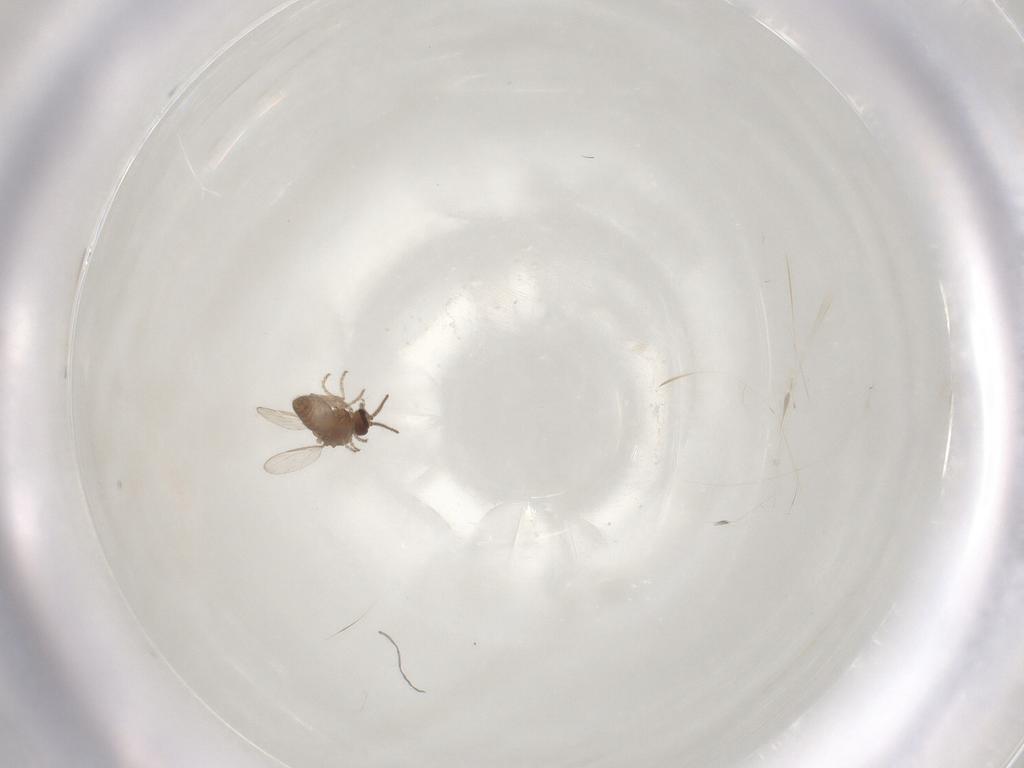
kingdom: Animalia
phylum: Arthropoda
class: Insecta
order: Diptera
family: Ceratopogonidae
